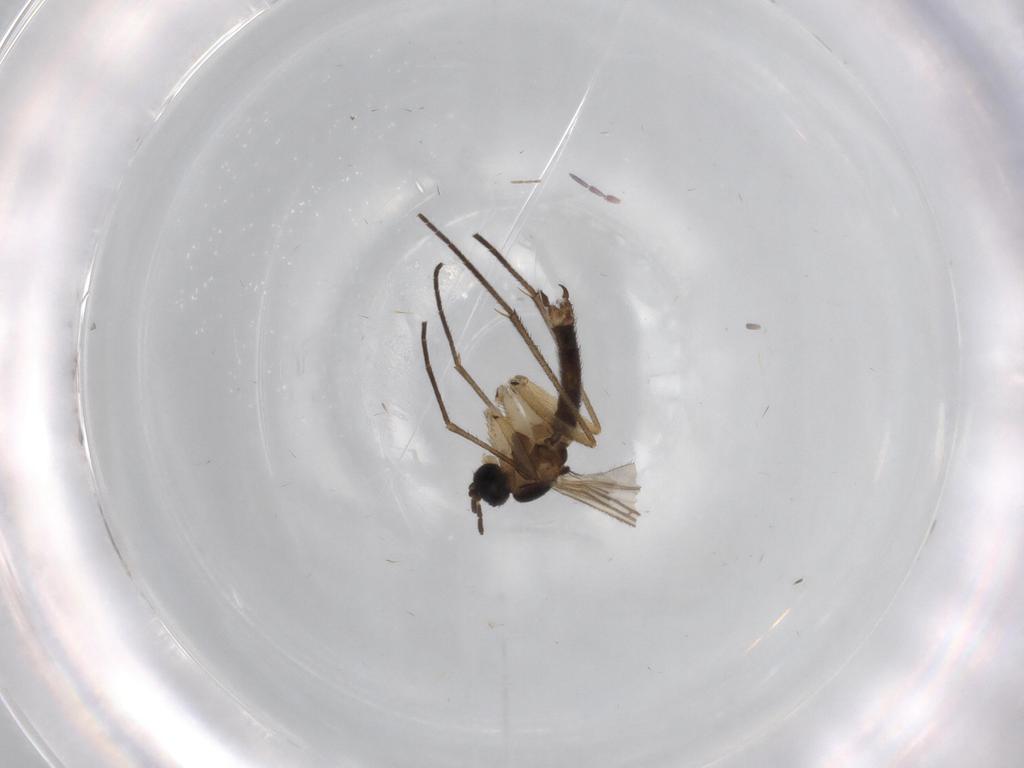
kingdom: Animalia
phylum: Arthropoda
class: Insecta
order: Diptera
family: Sciaridae
